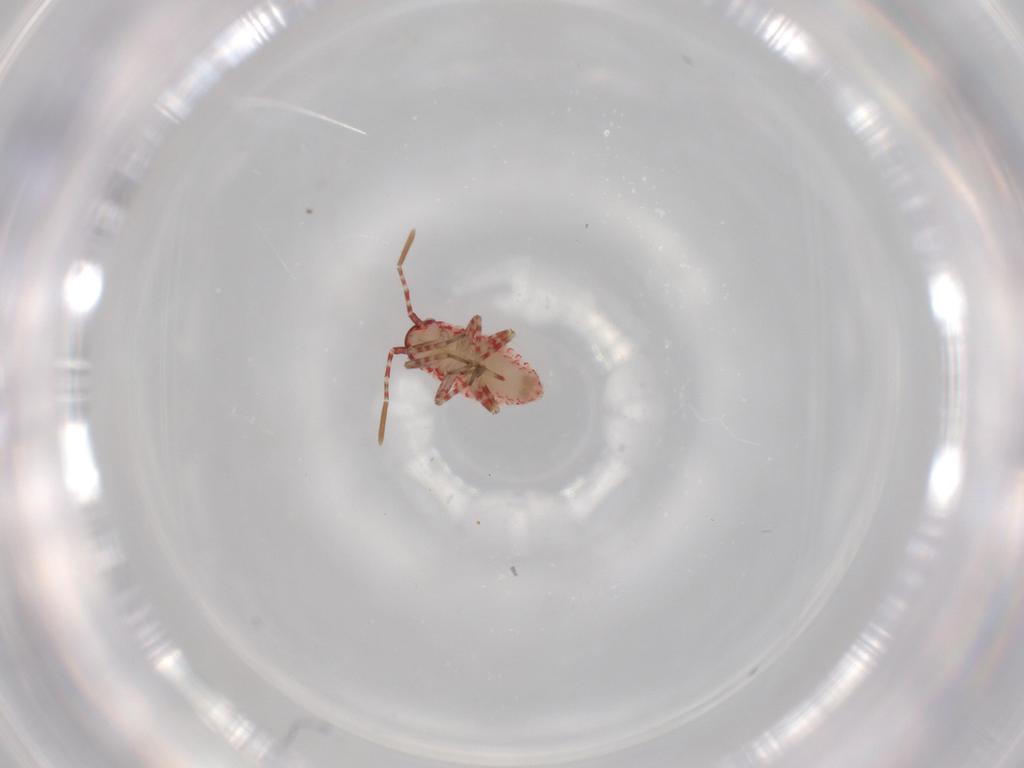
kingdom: Animalia
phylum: Arthropoda
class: Insecta
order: Hemiptera
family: Miridae
